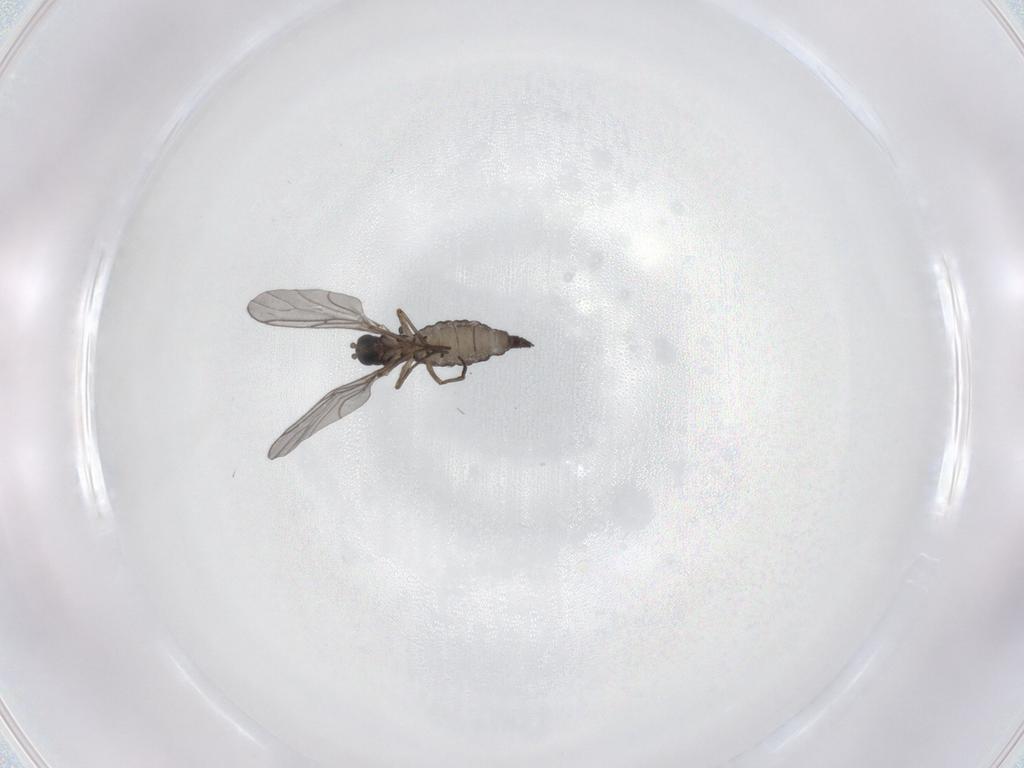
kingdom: Animalia
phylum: Arthropoda
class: Insecta
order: Diptera
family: Sciaridae
